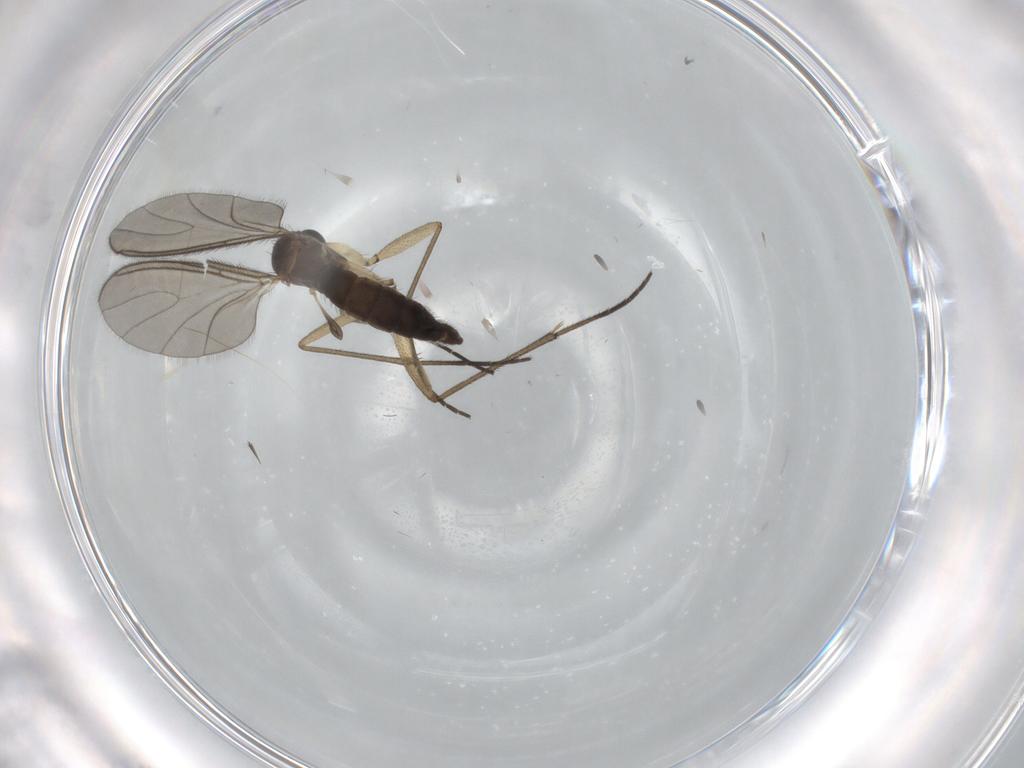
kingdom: Animalia
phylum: Arthropoda
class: Insecta
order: Diptera
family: Sciaridae
